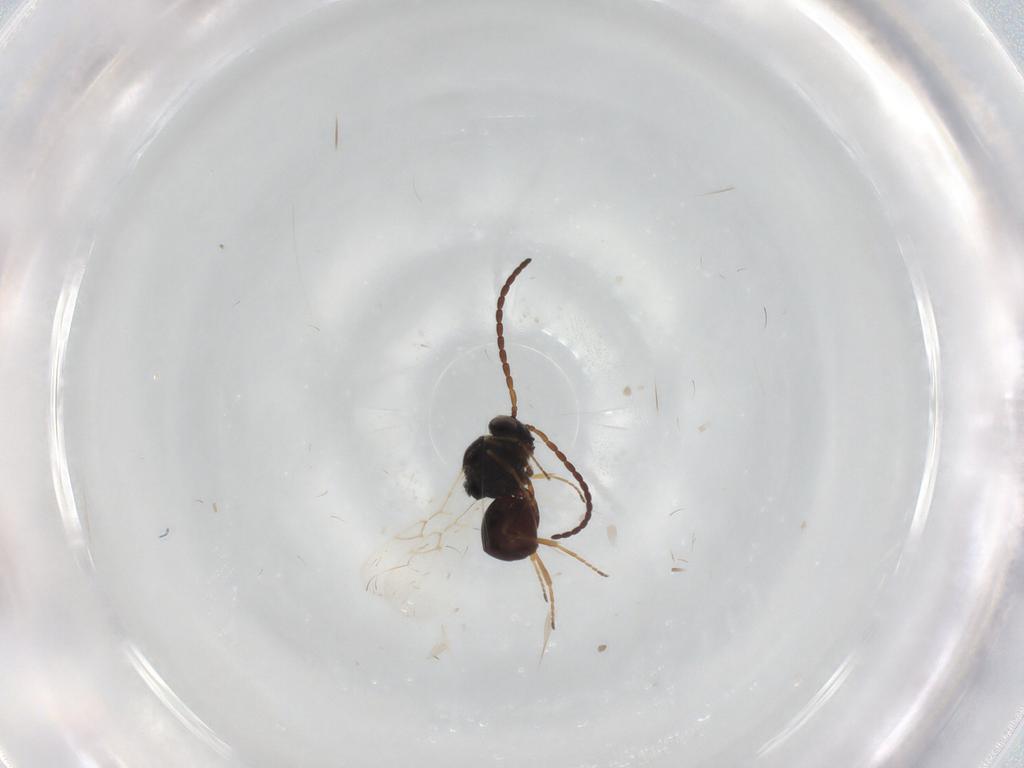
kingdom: Animalia
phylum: Arthropoda
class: Insecta
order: Hymenoptera
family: Figitidae
